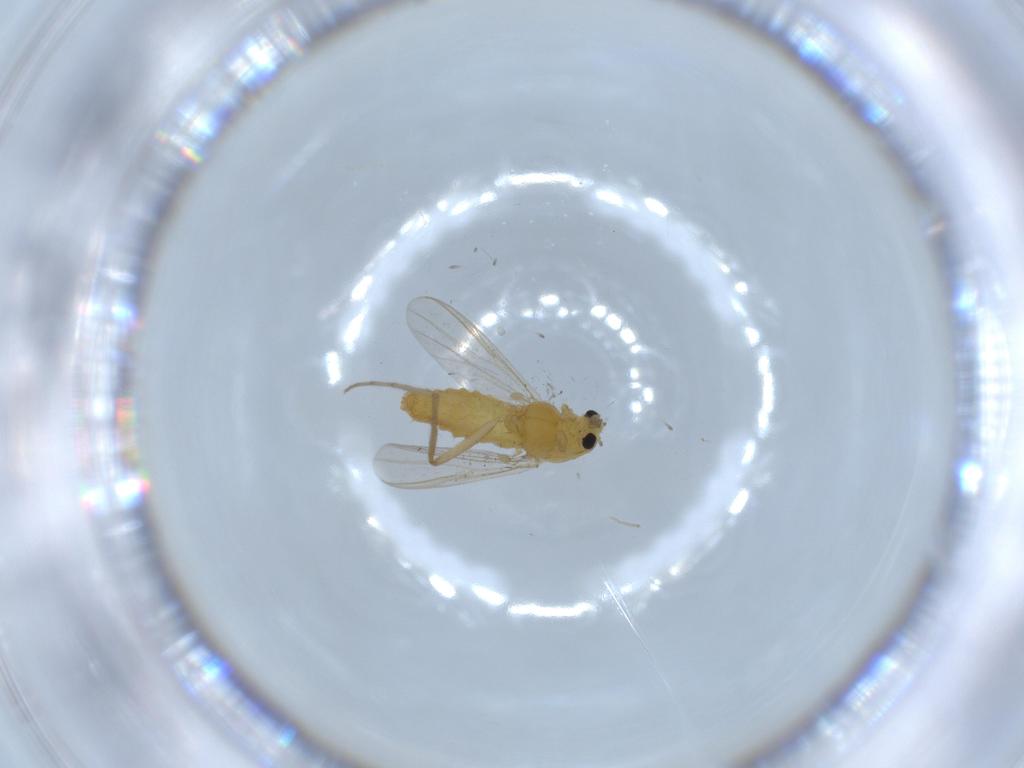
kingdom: Animalia
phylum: Arthropoda
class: Insecta
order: Diptera
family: Chironomidae
